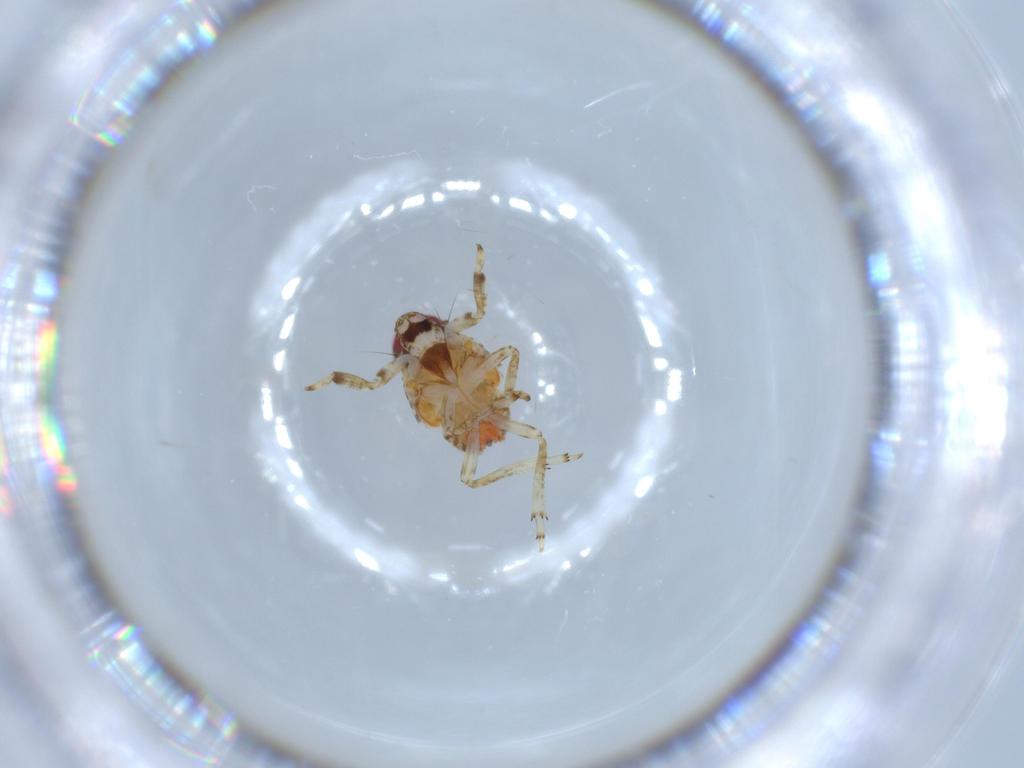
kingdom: Animalia
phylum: Arthropoda
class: Insecta
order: Hemiptera
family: Issidae
